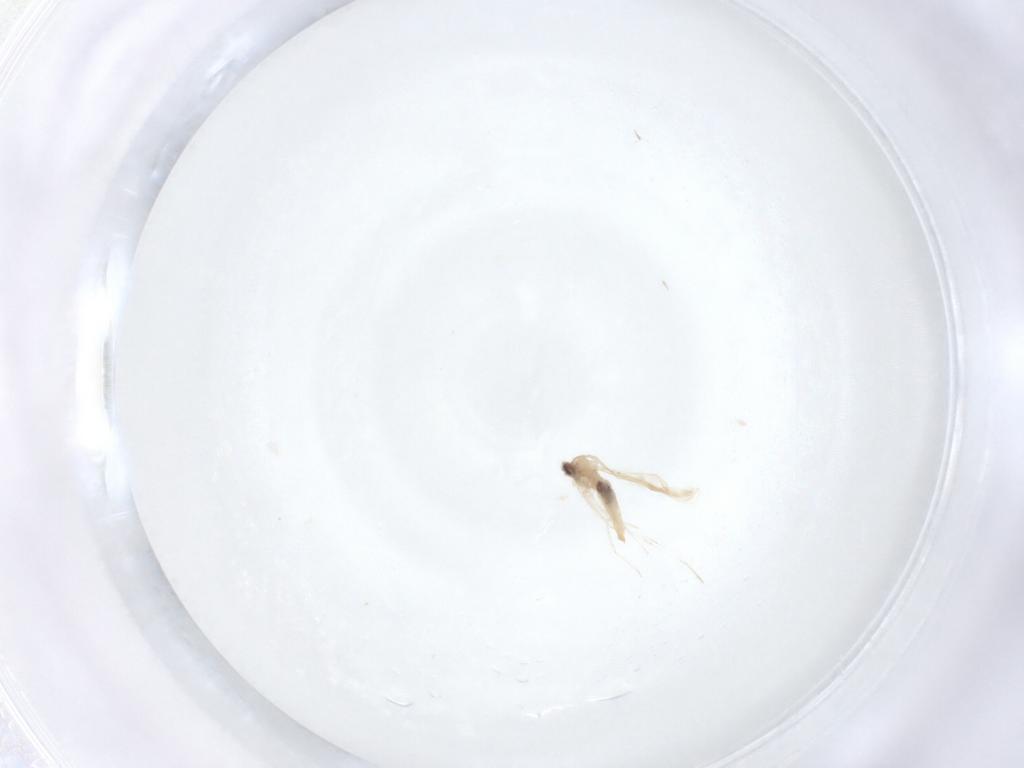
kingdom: Animalia
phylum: Arthropoda
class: Insecta
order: Diptera
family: Cecidomyiidae
